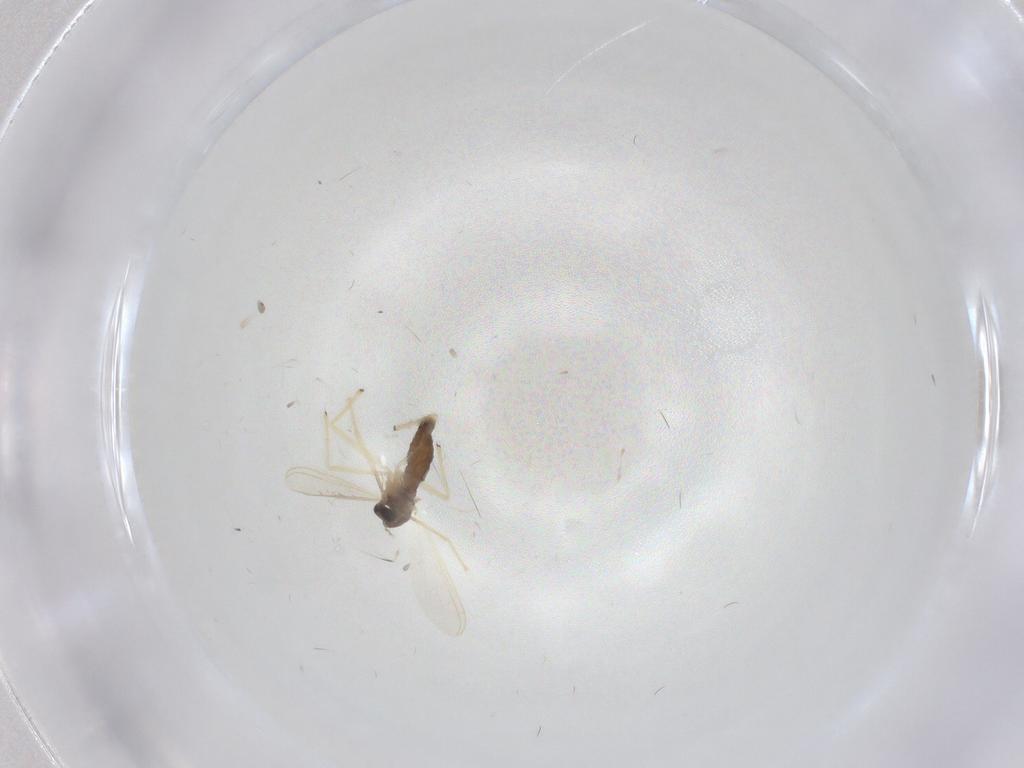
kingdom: Animalia
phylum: Arthropoda
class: Insecta
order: Diptera
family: Chironomidae
